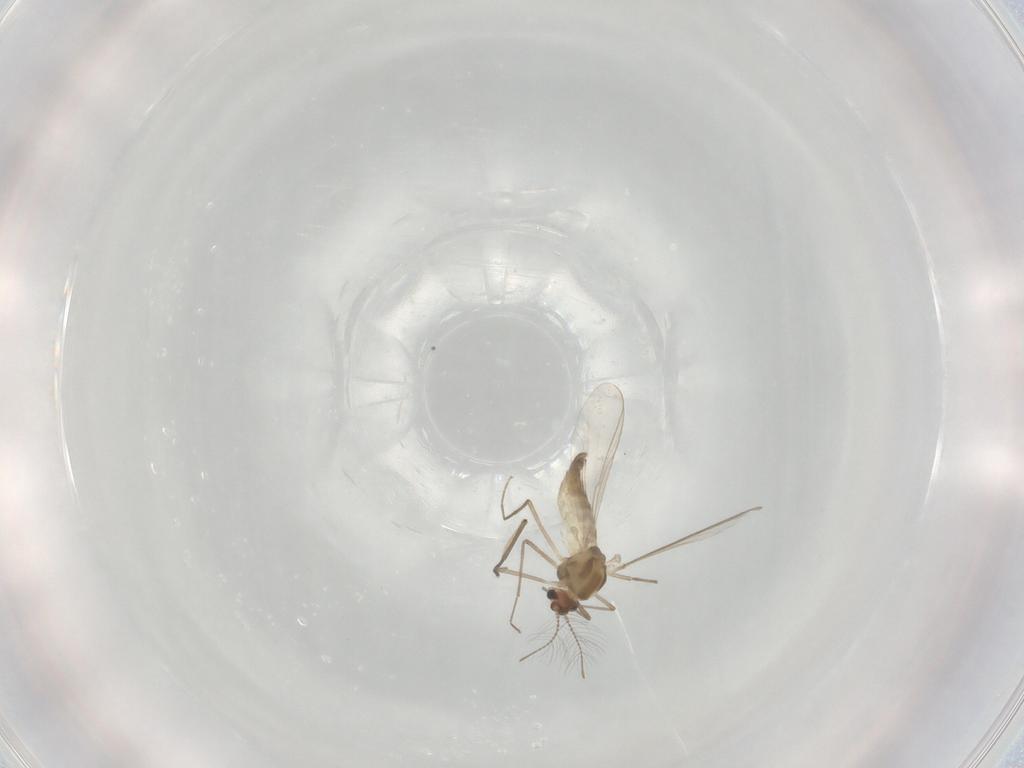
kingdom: Animalia
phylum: Arthropoda
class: Insecta
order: Diptera
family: Chironomidae
